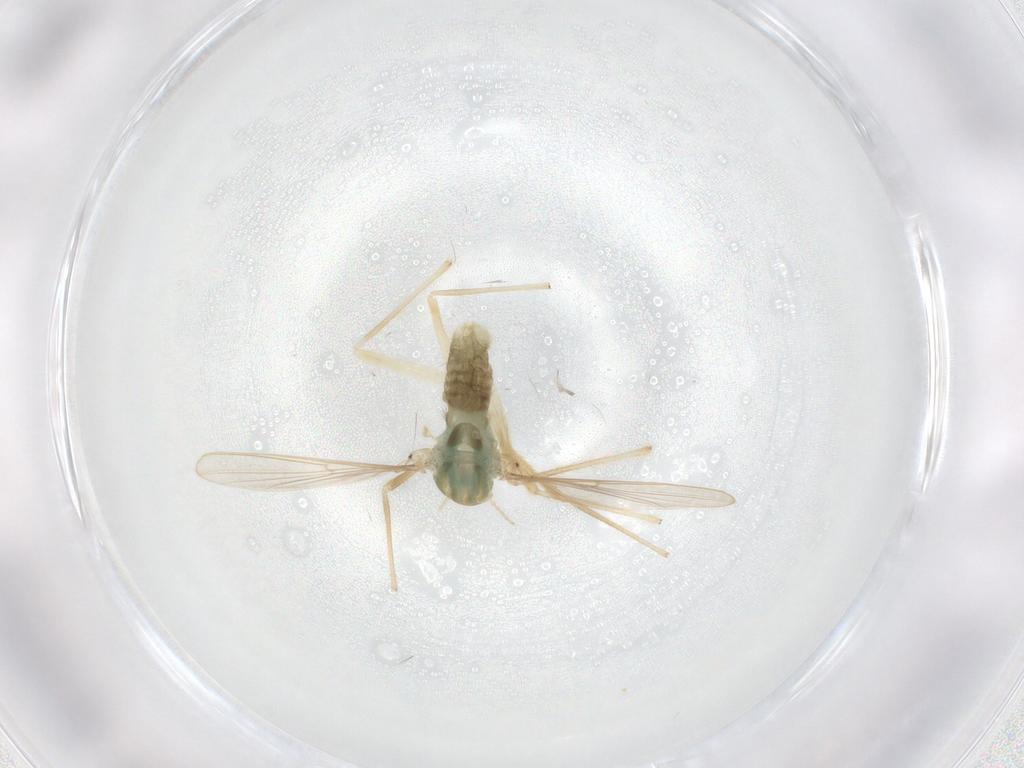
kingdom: Animalia
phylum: Arthropoda
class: Insecta
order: Diptera
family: Chironomidae
